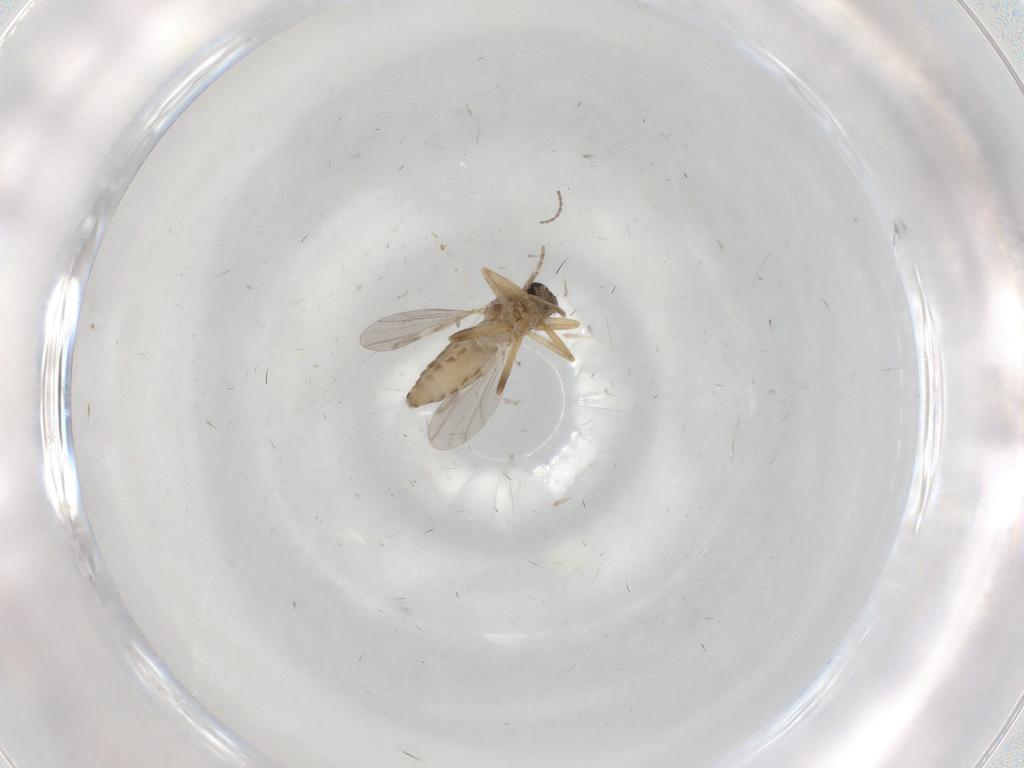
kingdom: Animalia
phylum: Arthropoda
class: Insecta
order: Diptera
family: Ceratopogonidae
